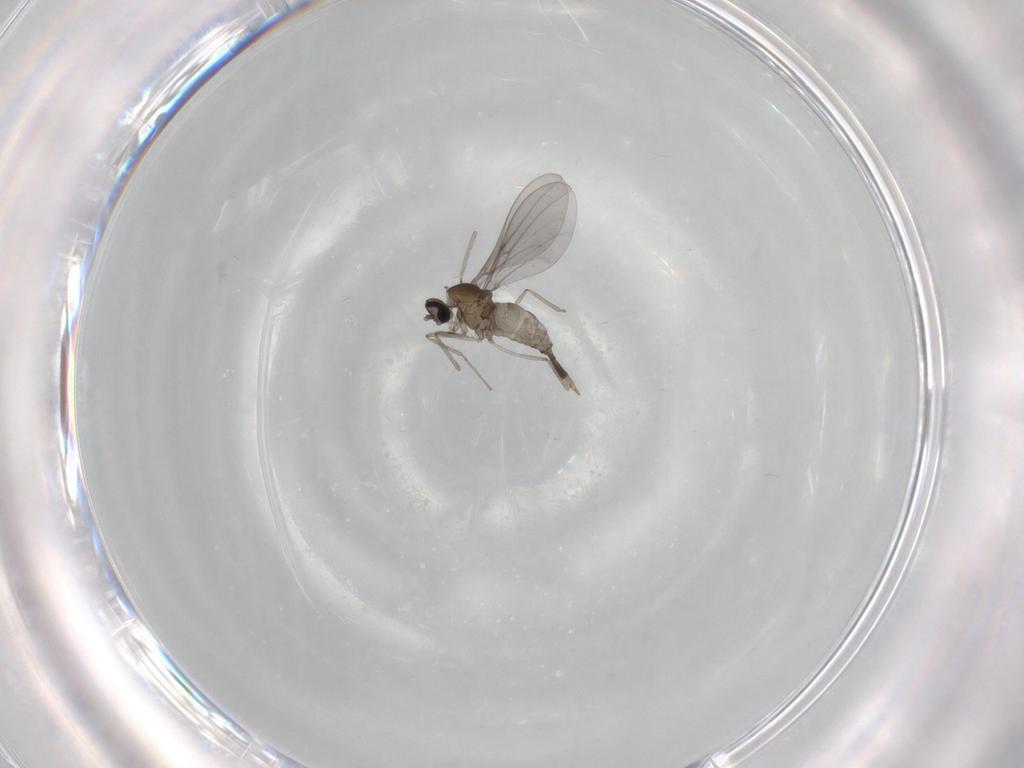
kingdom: Animalia
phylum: Arthropoda
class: Insecta
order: Diptera
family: Cecidomyiidae
